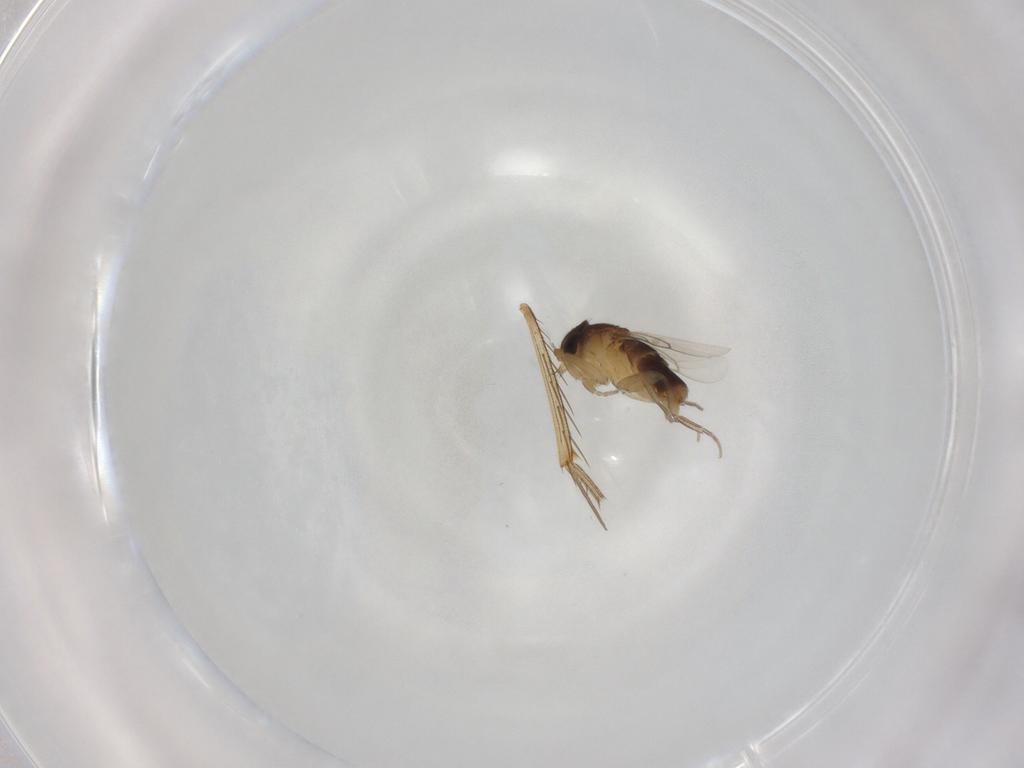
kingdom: Animalia
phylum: Arthropoda
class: Insecta
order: Diptera
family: Phoridae
